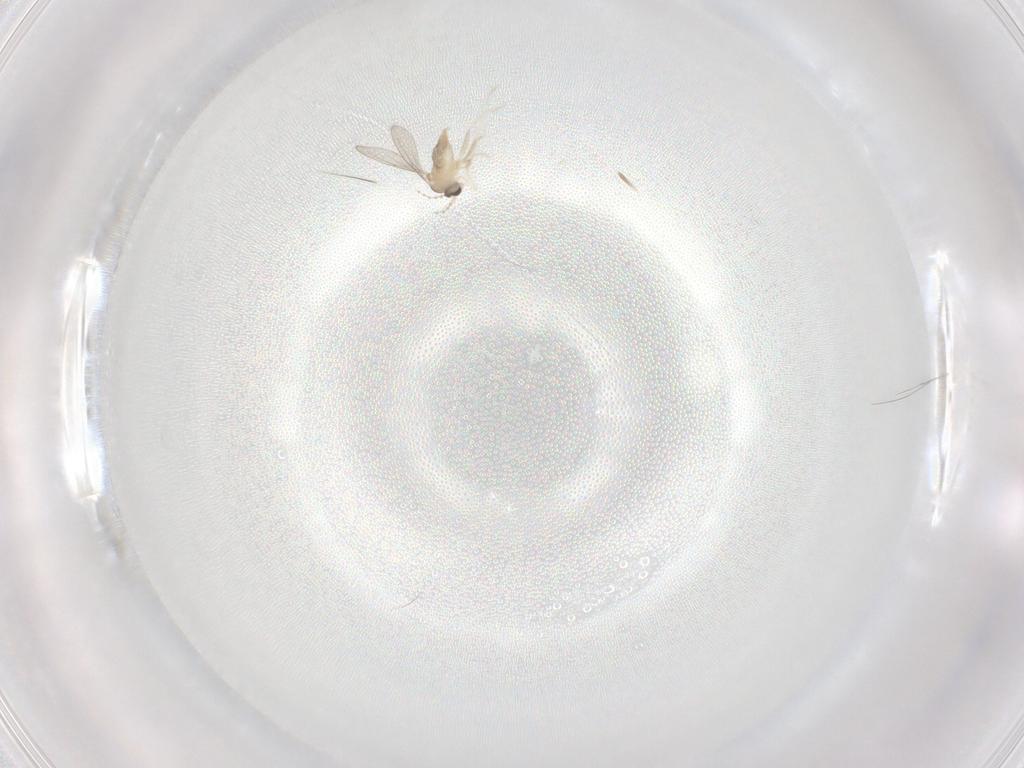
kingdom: Animalia
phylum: Arthropoda
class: Insecta
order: Diptera
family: Cecidomyiidae
